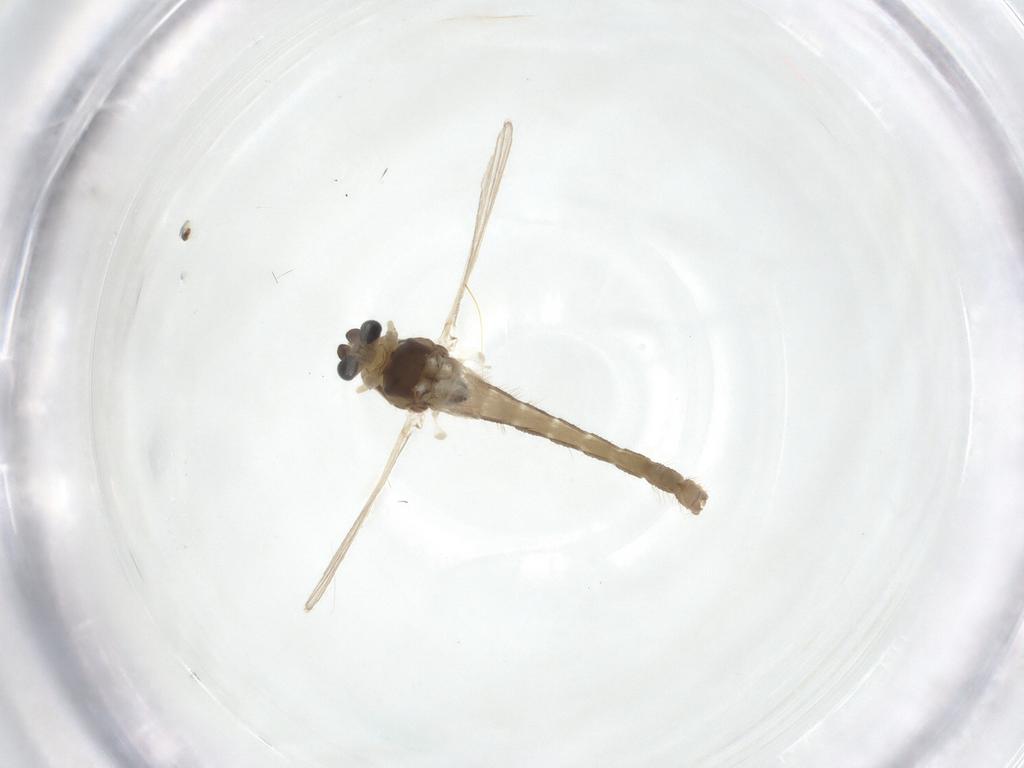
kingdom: Animalia
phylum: Arthropoda
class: Insecta
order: Diptera
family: Chironomidae
